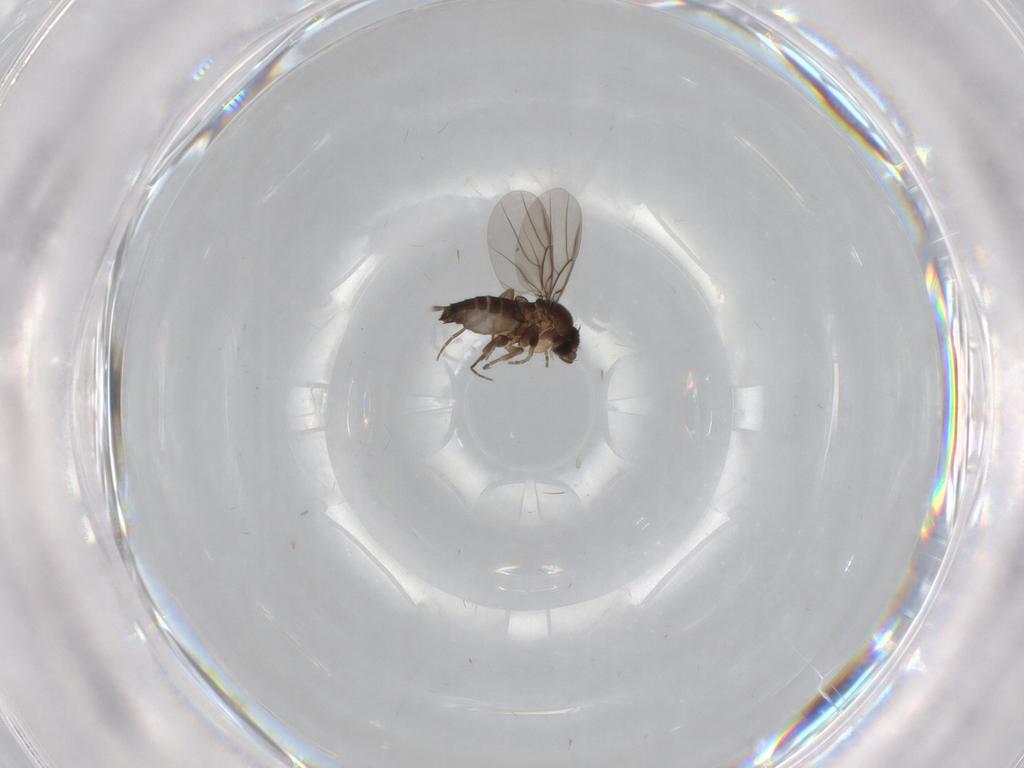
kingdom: Animalia
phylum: Arthropoda
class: Insecta
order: Diptera
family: Phoridae
